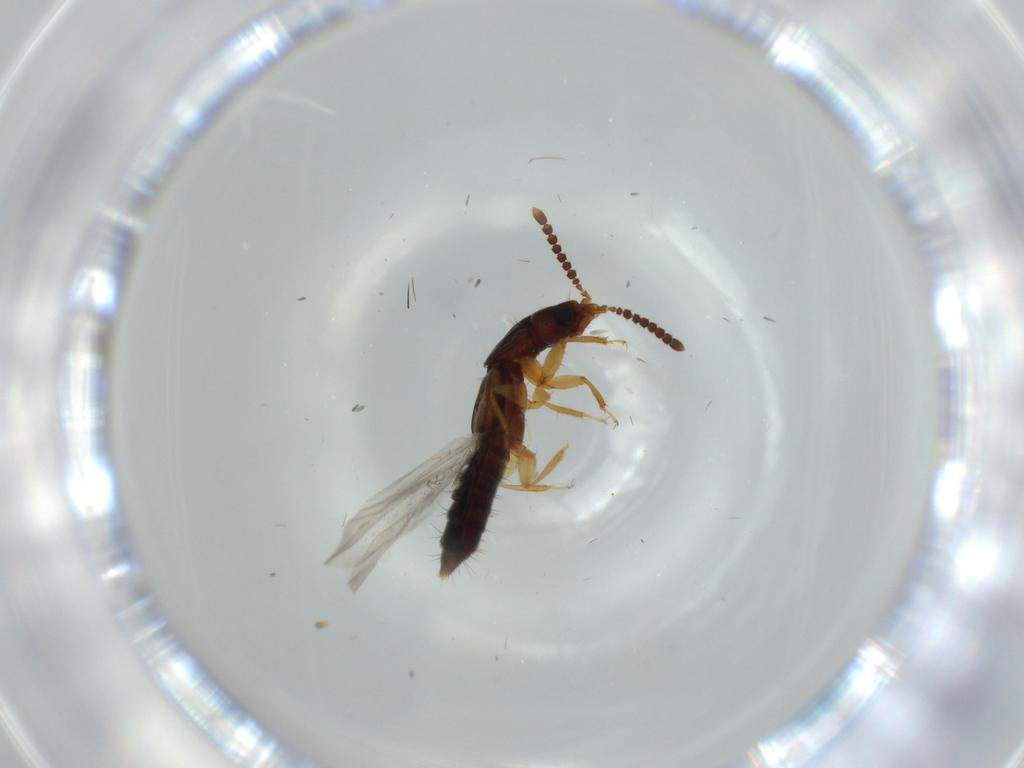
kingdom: Animalia
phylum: Arthropoda
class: Insecta
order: Coleoptera
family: Staphylinidae
